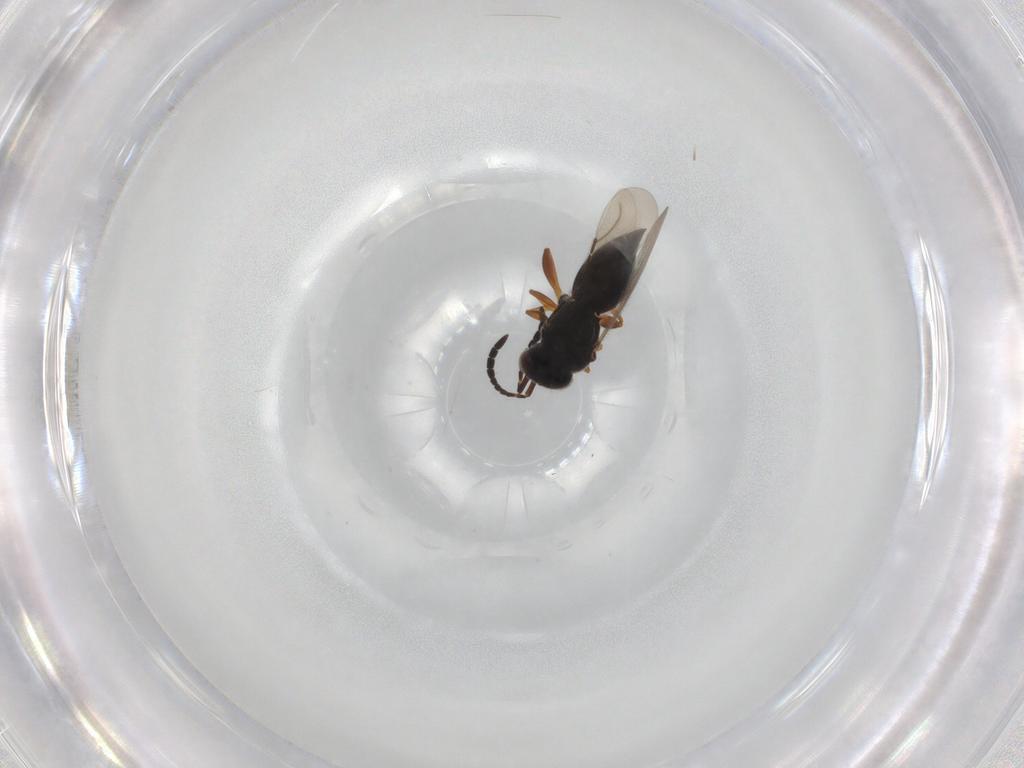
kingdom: Animalia
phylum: Arthropoda
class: Insecta
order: Hymenoptera
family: Ceraphronidae
